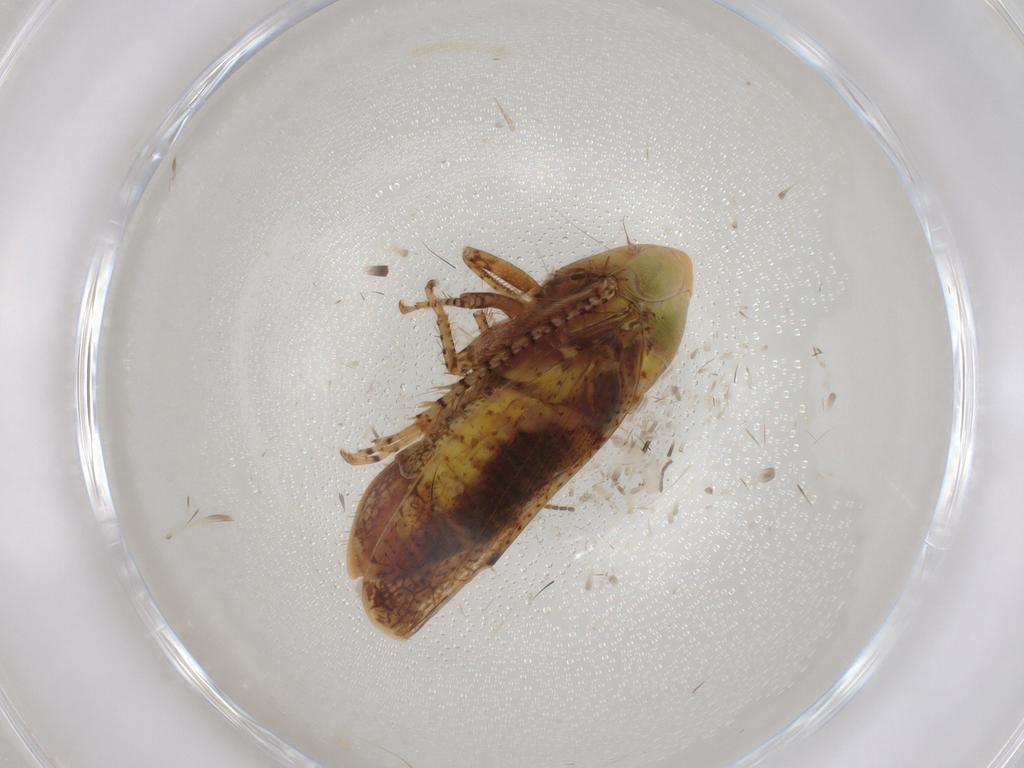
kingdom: Animalia
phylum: Arthropoda
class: Insecta
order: Hemiptera
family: Cicadellidae
